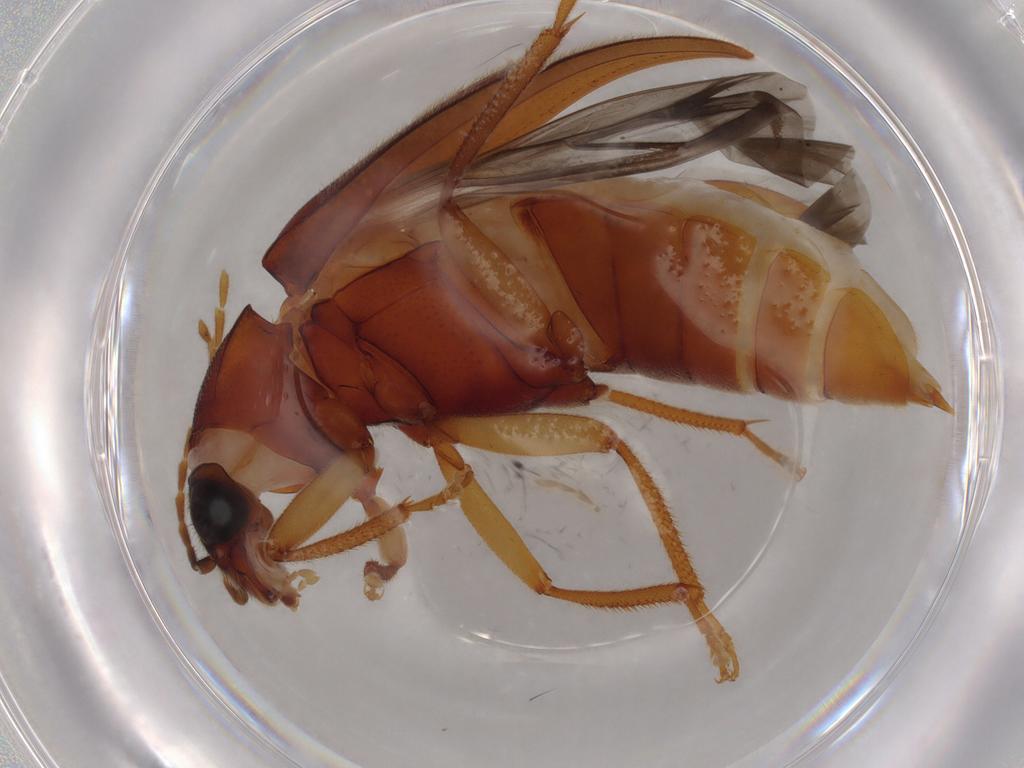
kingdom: Animalia
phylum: Arthropoda
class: Insecta
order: Coleoptera
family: Ptilodactylidae
